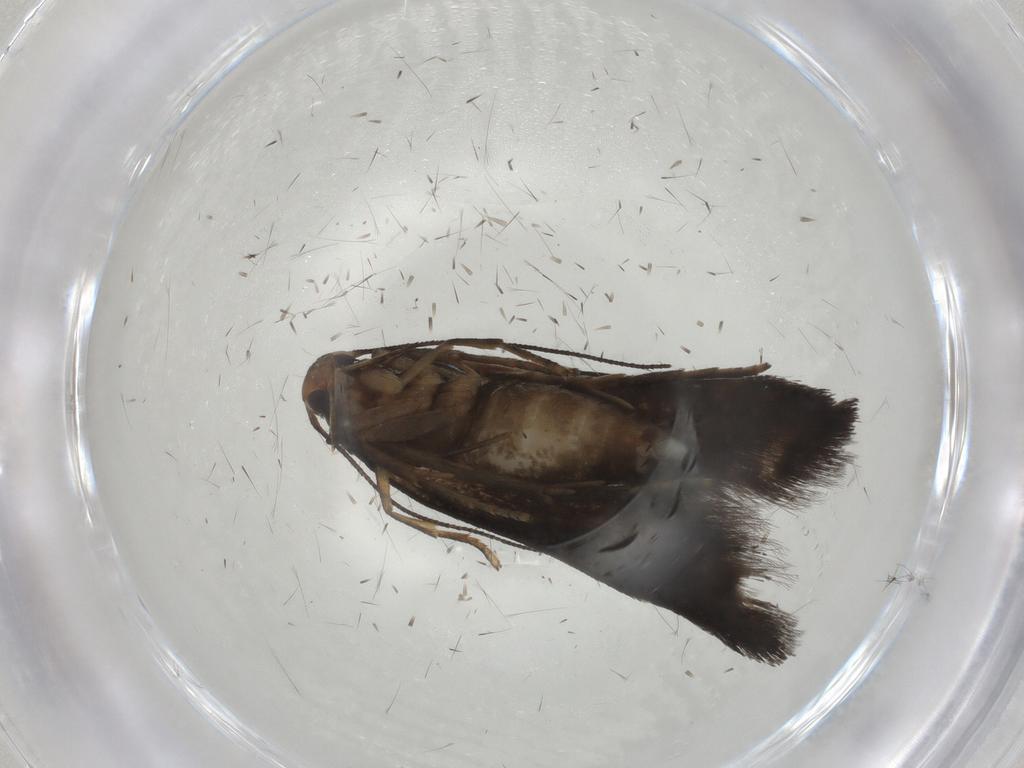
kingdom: Animalia
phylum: Arthropoda
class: Insecta
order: Lepidoptera
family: Noctuidae
